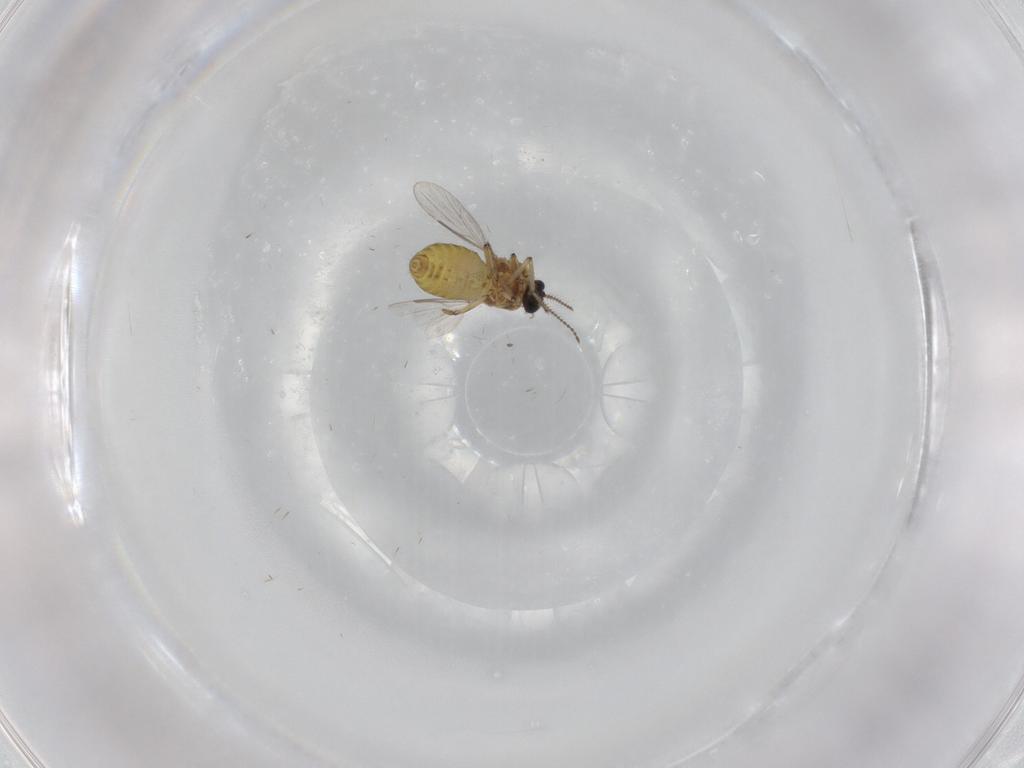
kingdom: Animalia
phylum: Arthropoda
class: Insecta
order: Diptera
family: Ceratopogonidae
